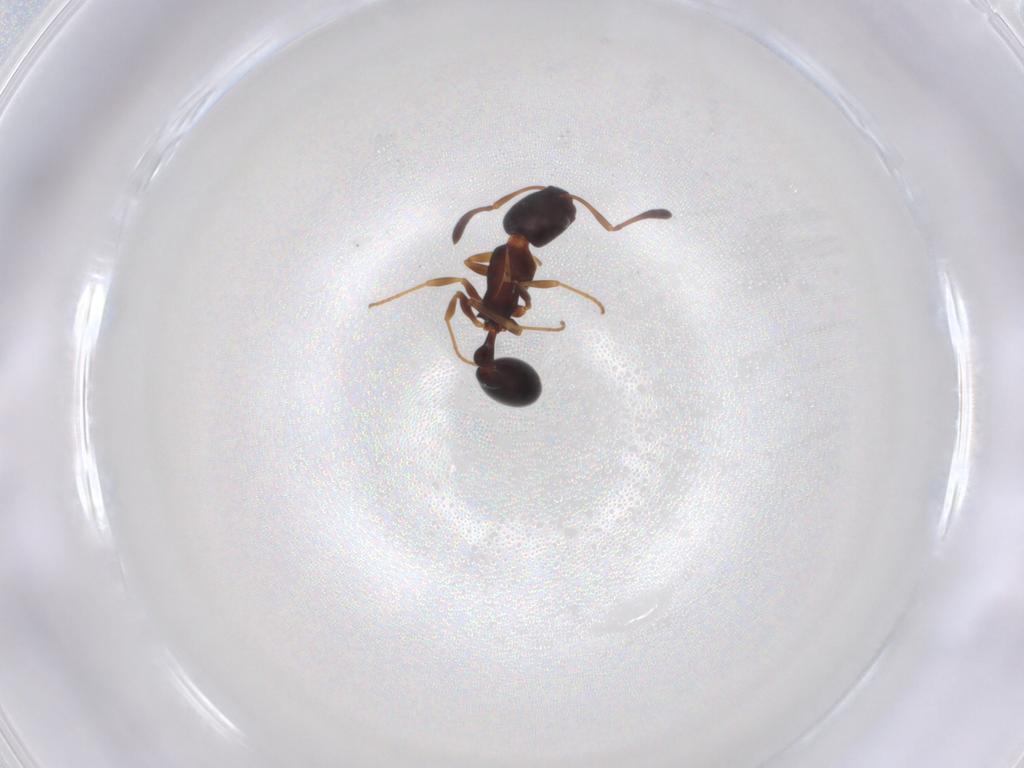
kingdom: Animalia
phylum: Arthropoda
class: Insecta
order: Hymenoptera
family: Formicidae
